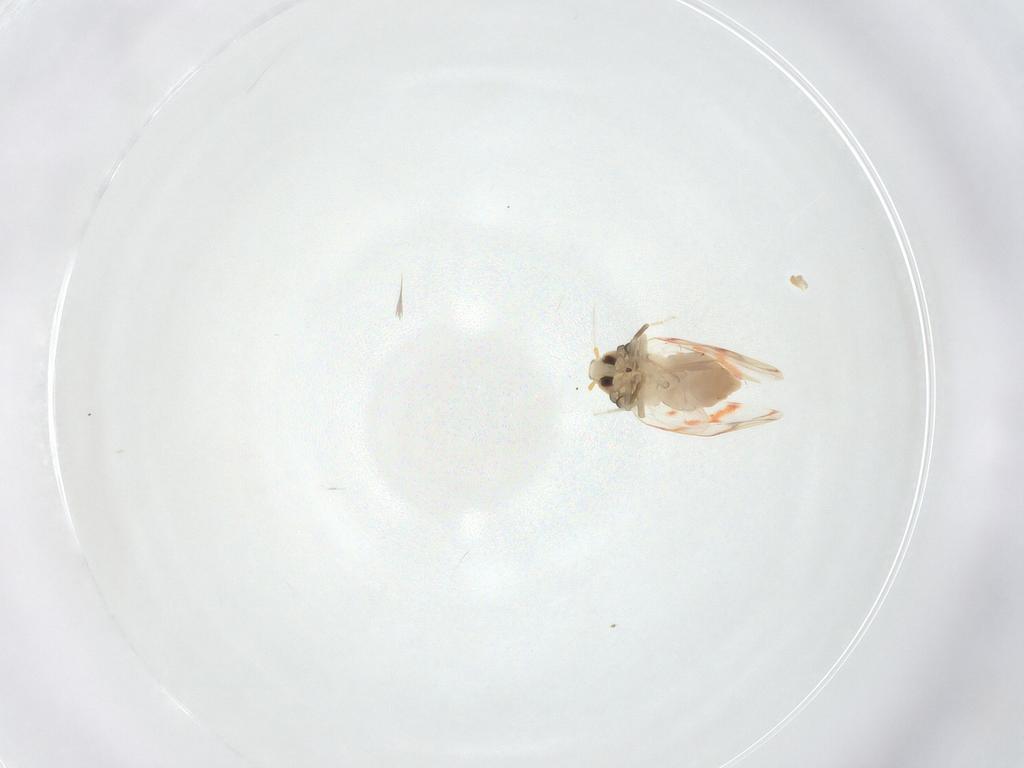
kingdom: Animalia
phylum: Arthropoda
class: Insecta
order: Hemiptera
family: Aleyrodidae
